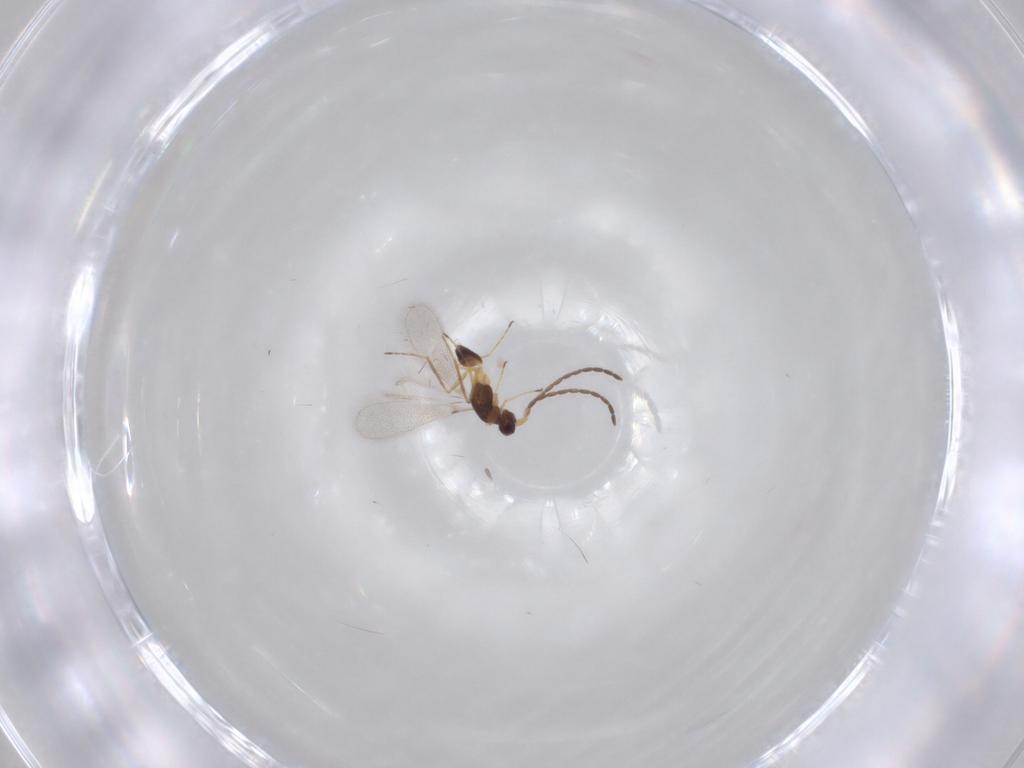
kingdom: Animalia
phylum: Arthropoda
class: Insecta
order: Hymenoptera
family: Mymaridae
